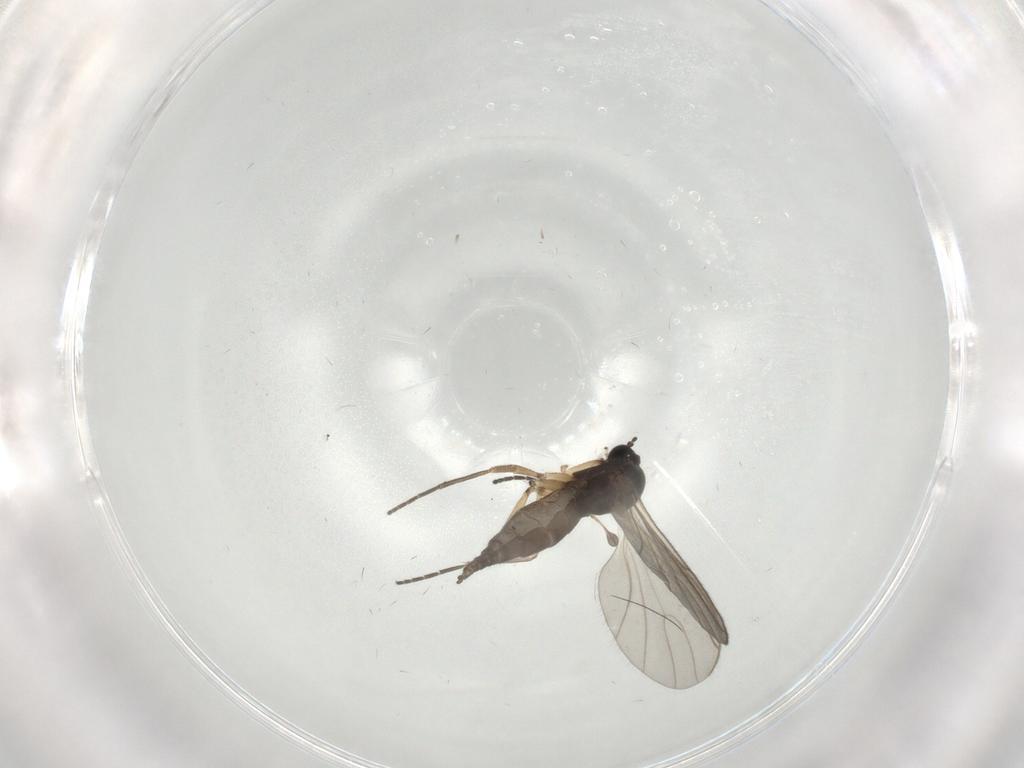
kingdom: Animalia
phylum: Arthropoda
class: Insecta
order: Diptera
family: Sciaridae
